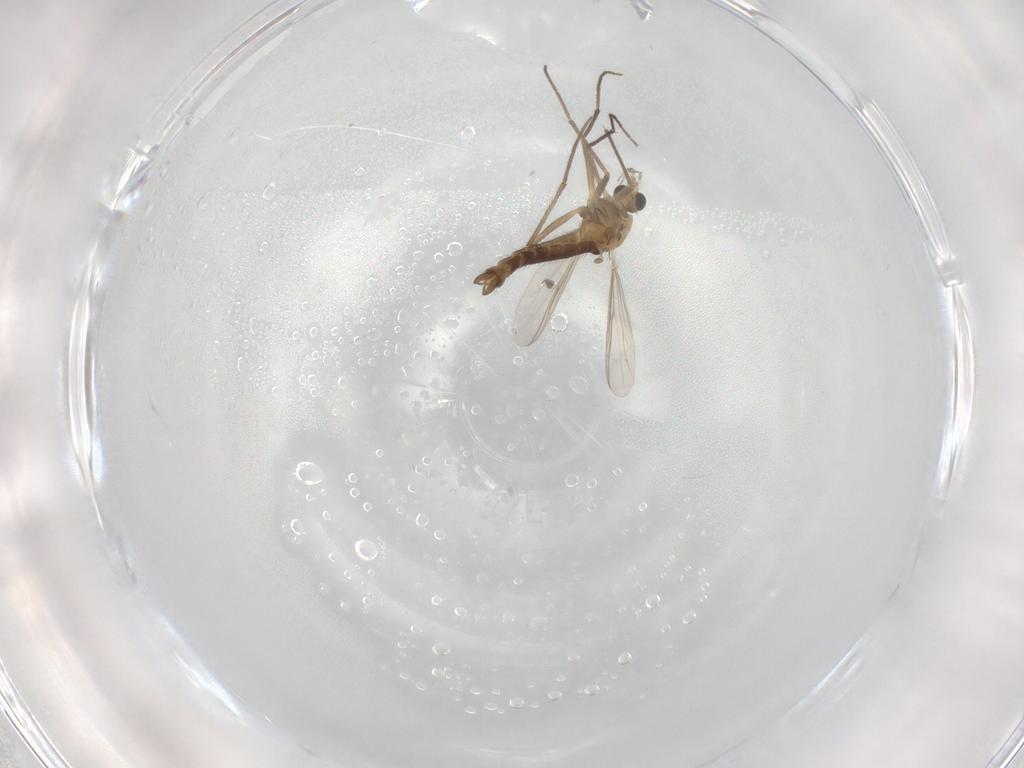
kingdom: Animalia
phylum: Arthropoda
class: Insecta
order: Diptera
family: Chironomidae
